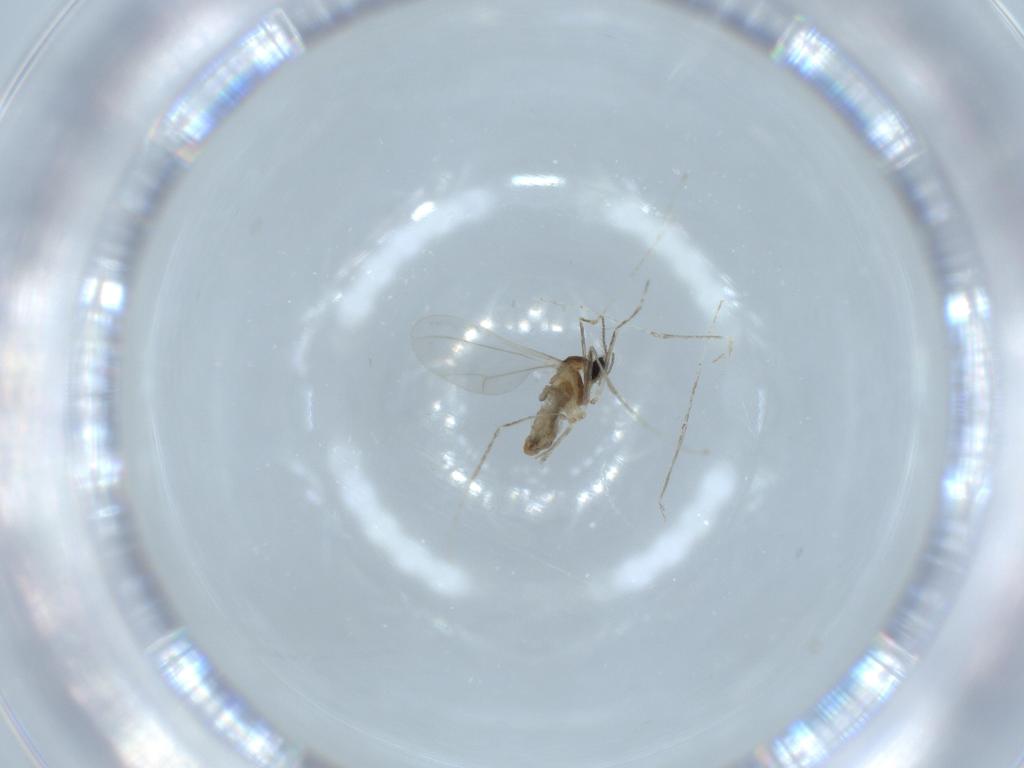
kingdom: Animalia
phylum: Arthropoda
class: Insecta
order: Diptera
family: Cecidomyiidae
